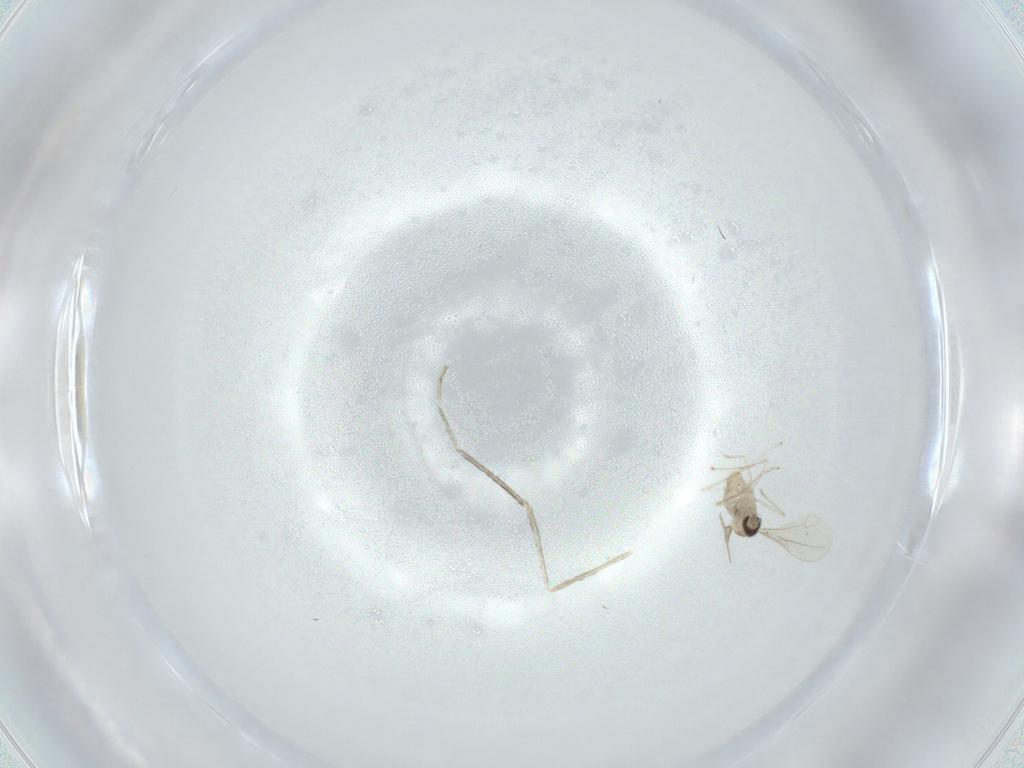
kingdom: Animalia
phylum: Arthropoda
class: Insecta
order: Diptera
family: Cecidomyiidae
